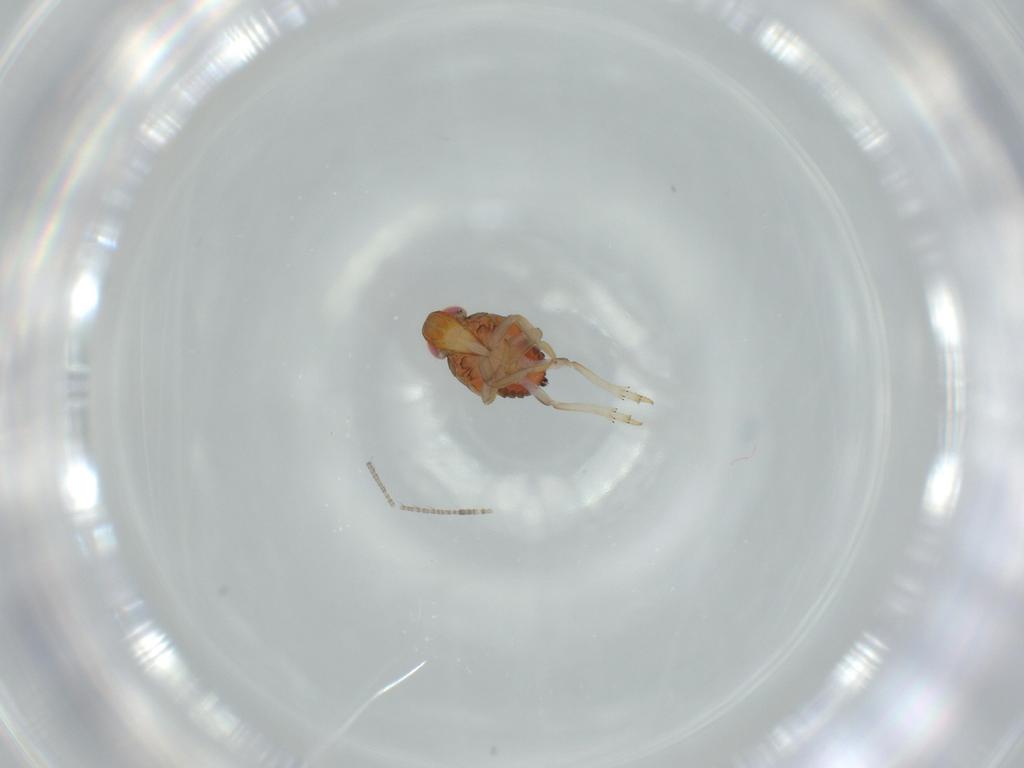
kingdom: Animalia
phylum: Arthropoda
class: Insecta
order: Hemiptera
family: Issidae
